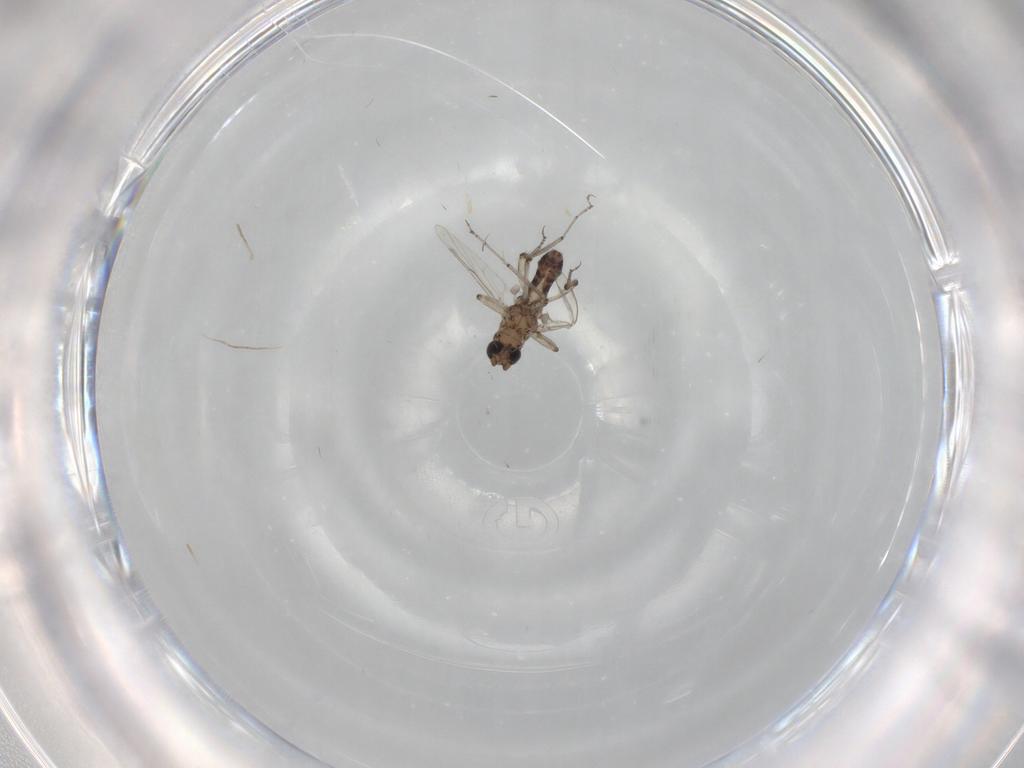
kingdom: Animalia
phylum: Arthropoda
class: Insecta
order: Diptera
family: Ceratopogonidae
